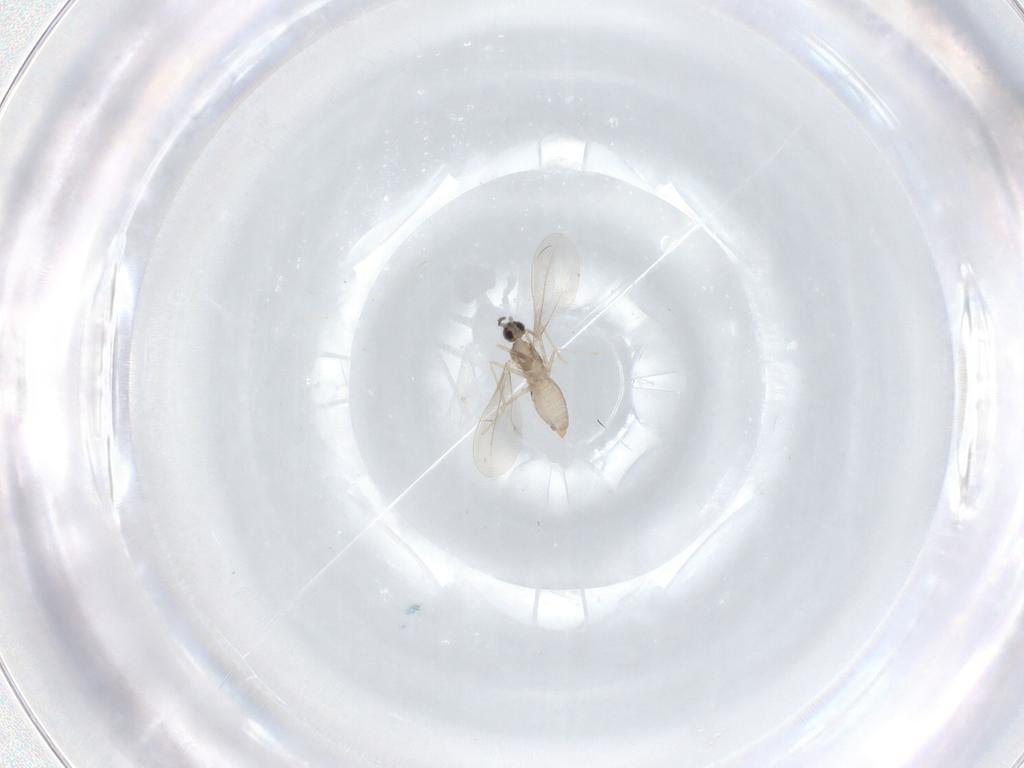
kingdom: Animalia
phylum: Arthropoda
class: Insecta
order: Diptera
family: Cecidomyiidae
